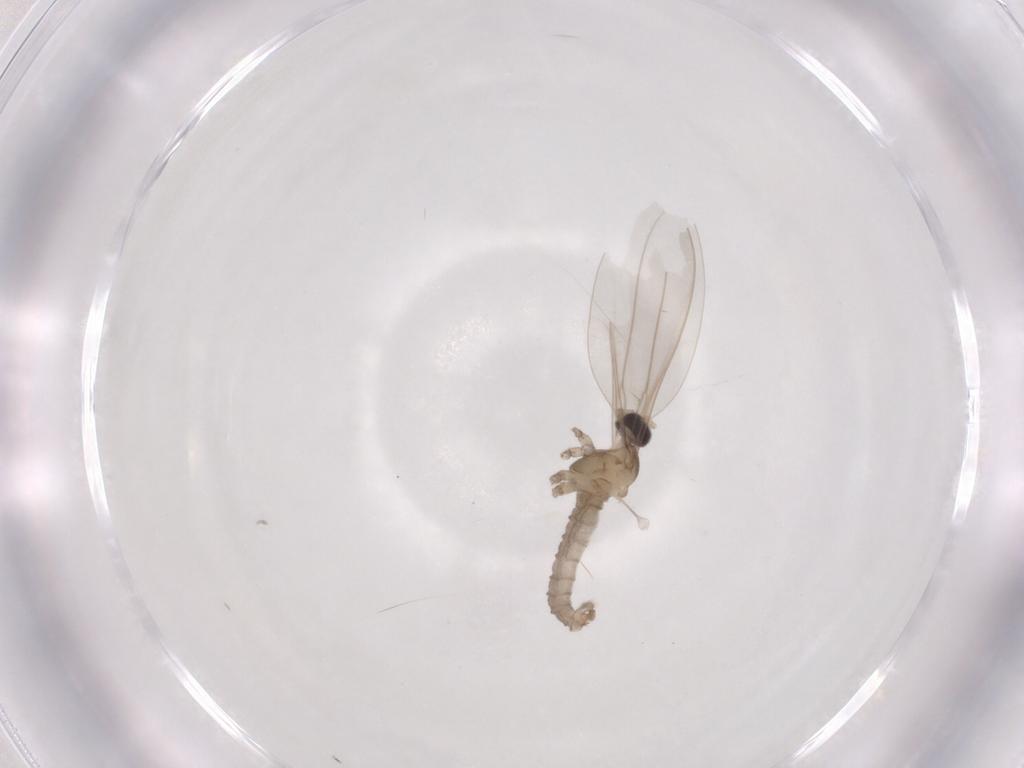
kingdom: Animalia
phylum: Arthropoda
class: Insecta
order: Diptera
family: Cecidomyiidae
